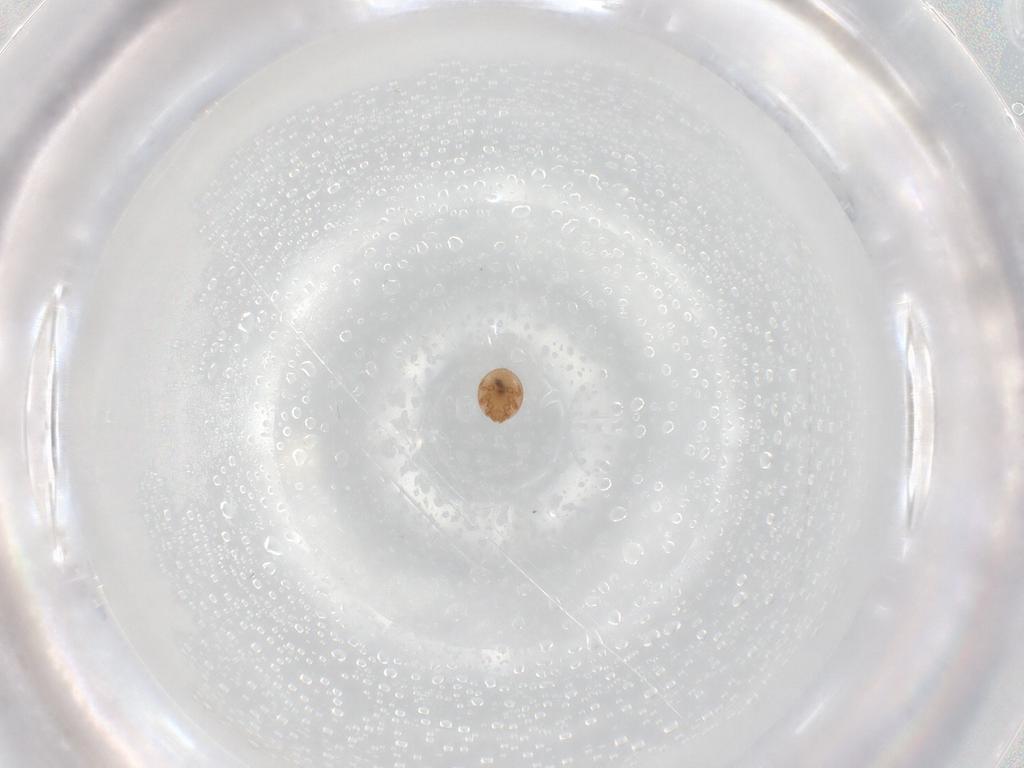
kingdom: Animalia
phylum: Arthropoda
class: Arachnida
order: Mesostigmata
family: Trematuridae
